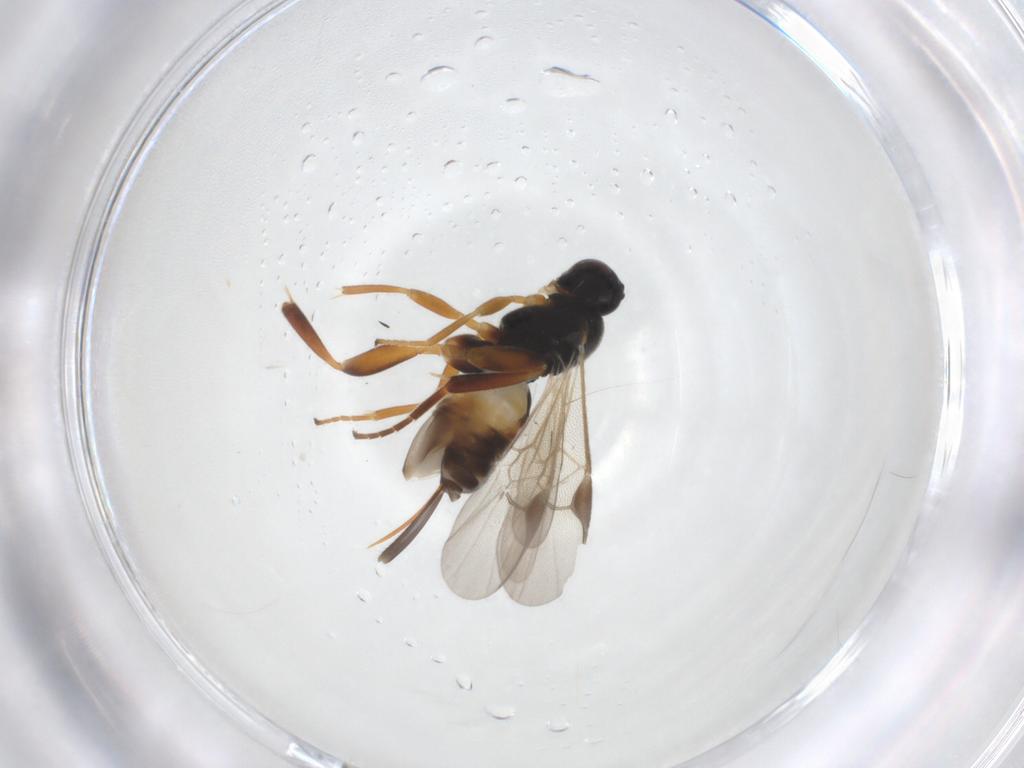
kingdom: Animalia
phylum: Arthropoda
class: Insecta
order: Hymenoptera
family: Braconidae
